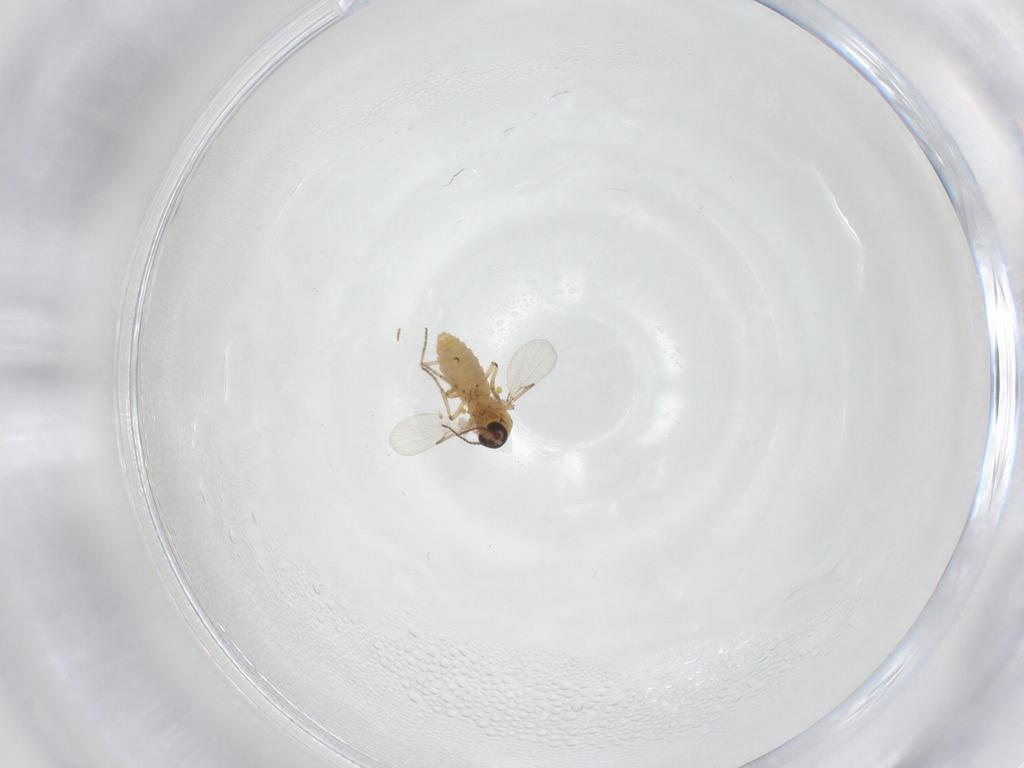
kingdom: Animalia
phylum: Arthropoda
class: Insecta
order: Diptera
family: Ceratopogonidae
